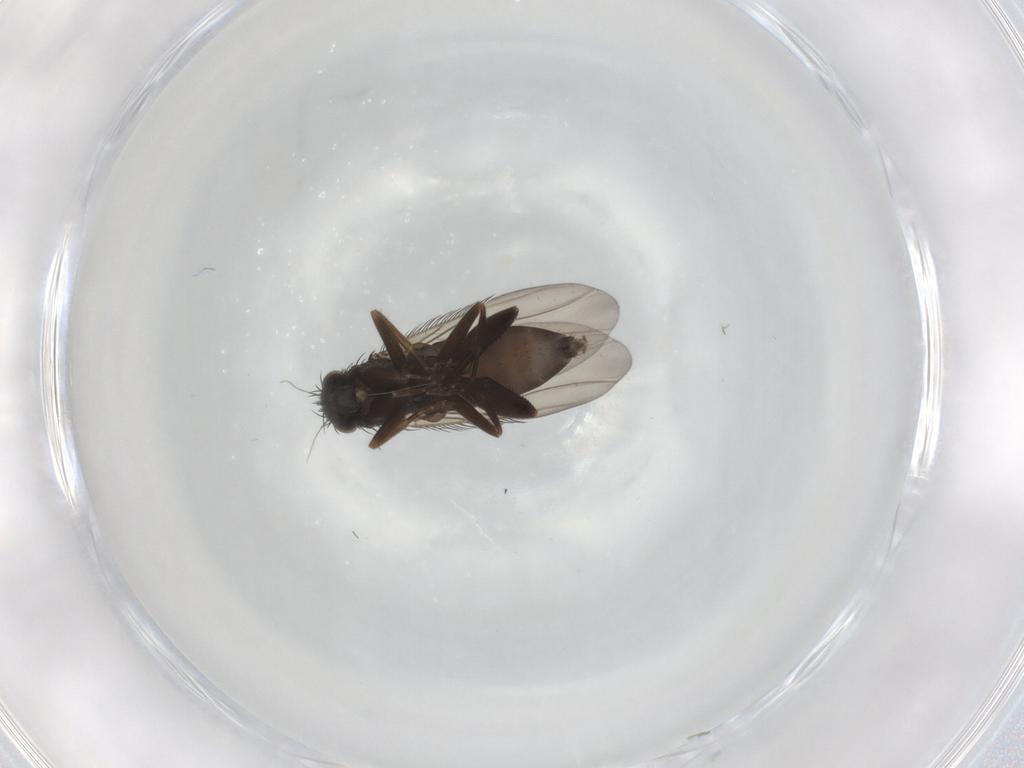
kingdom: Animalia
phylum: Arthropoda
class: Insecta
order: Diptera
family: Phoridae
